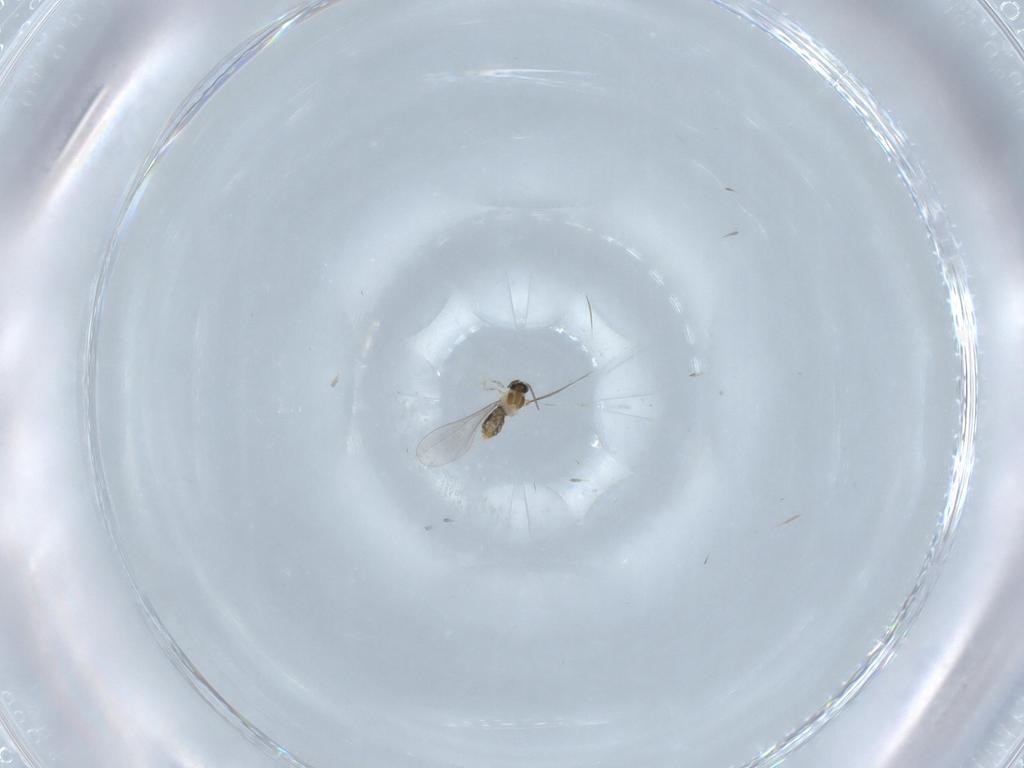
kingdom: Animalia
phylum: Arthropoda
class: Insecta
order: Diptera
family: Cecidomyiidae
